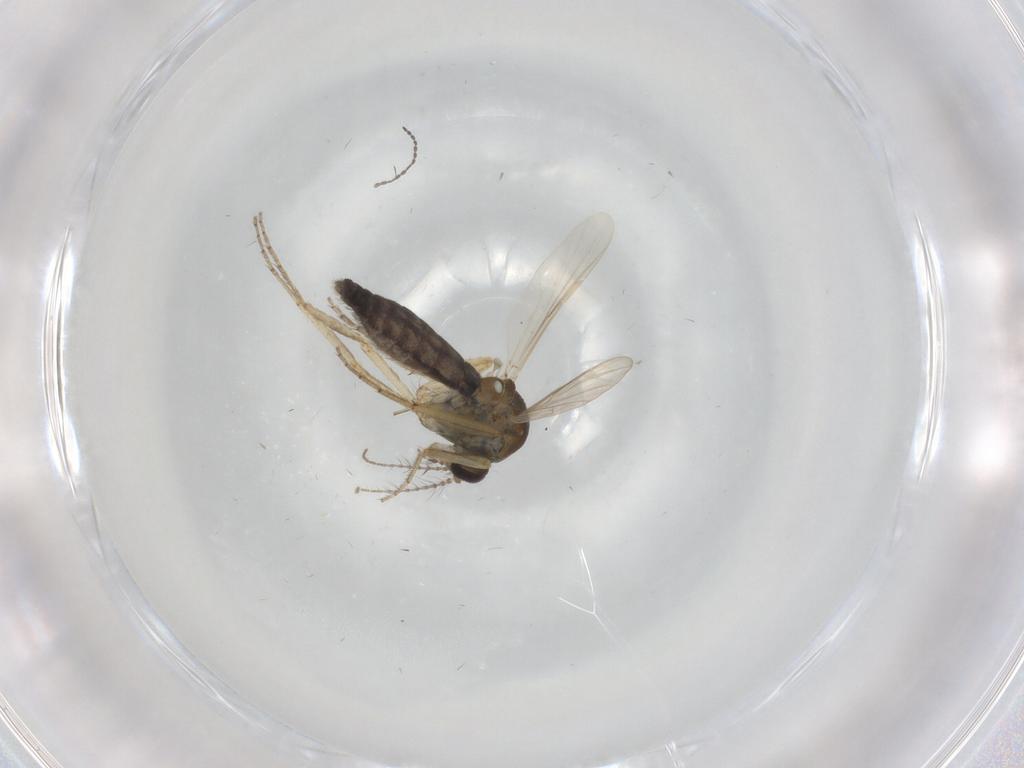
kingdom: Animalia
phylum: Arthropoda
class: Insecta
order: Diptera
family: Ceratopogonidae
